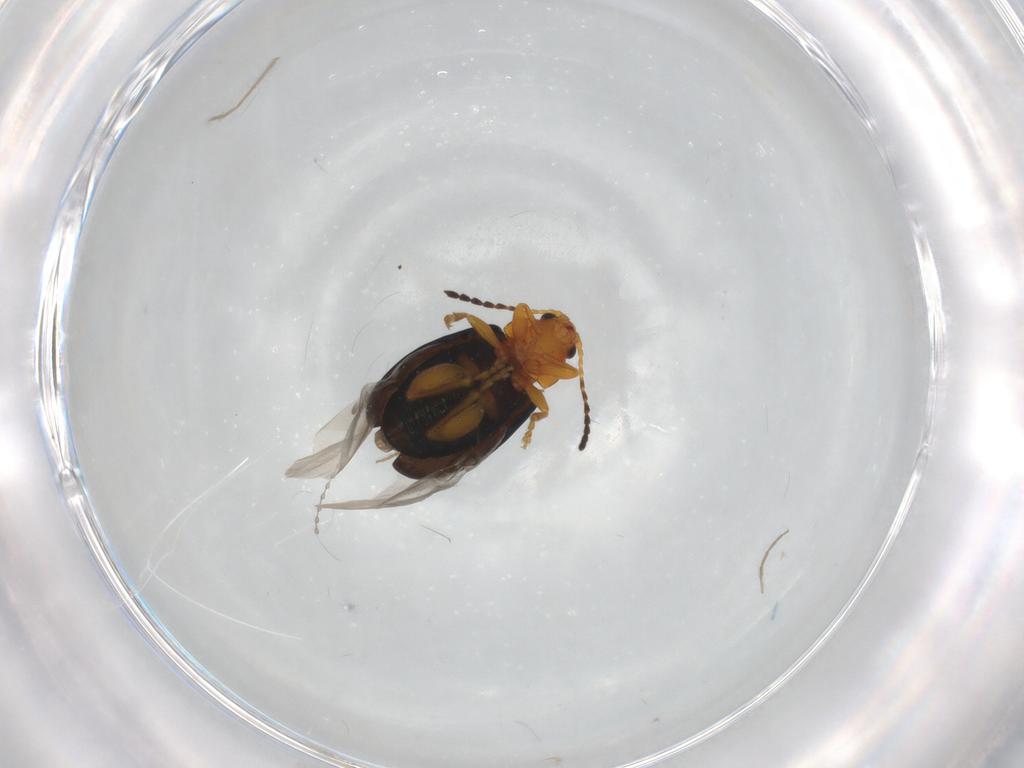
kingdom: Animalia
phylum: Arthropoda
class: Insecta
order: Coleoptera
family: Chrysomelidae
